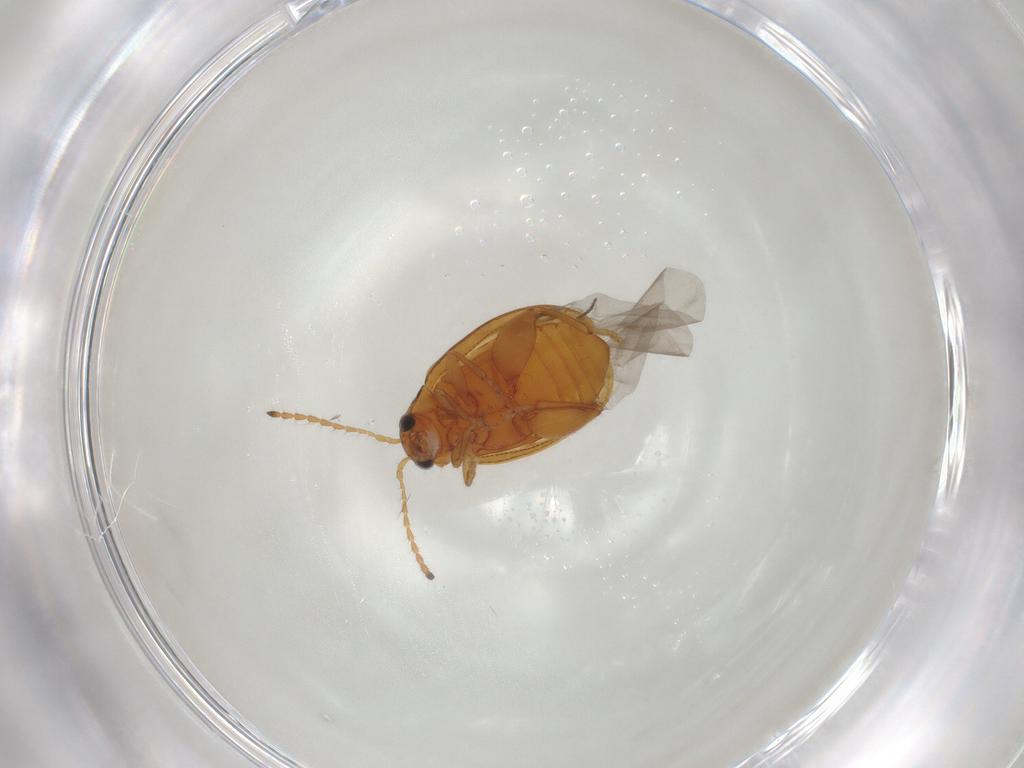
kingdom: Animalia
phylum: Arthropoda
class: Insecta
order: Coleoptera
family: Chrysomelidae
